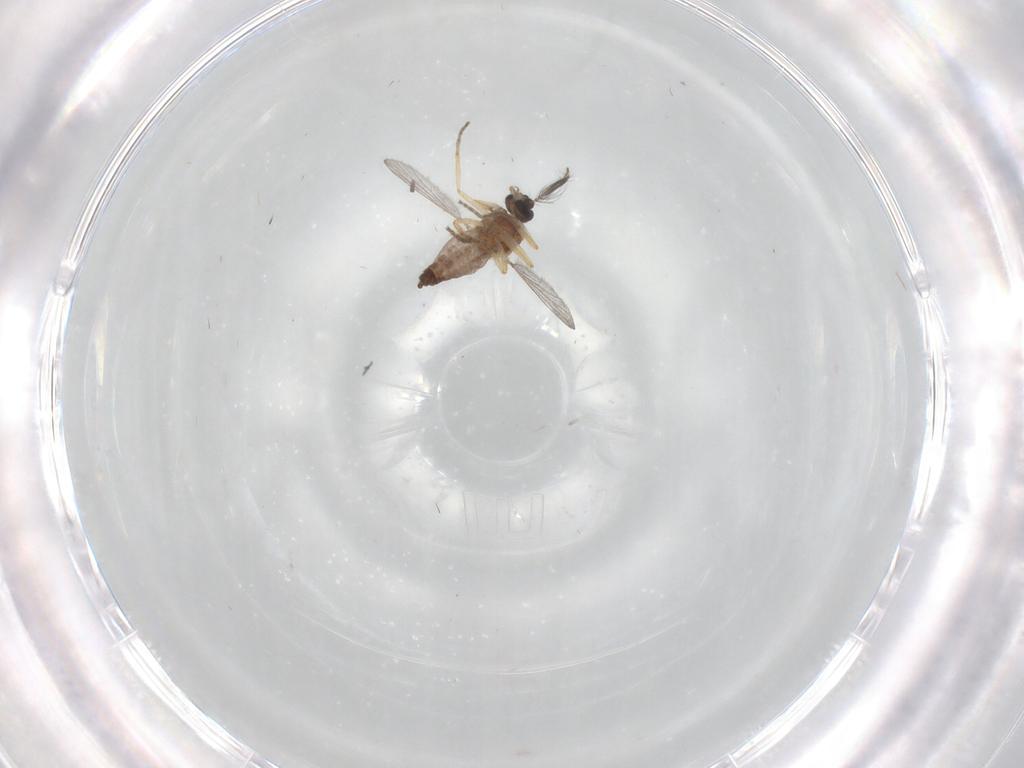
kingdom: Animalia
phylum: Arthropoda
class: Insecta
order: Diptera
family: Ceratopogonidae
